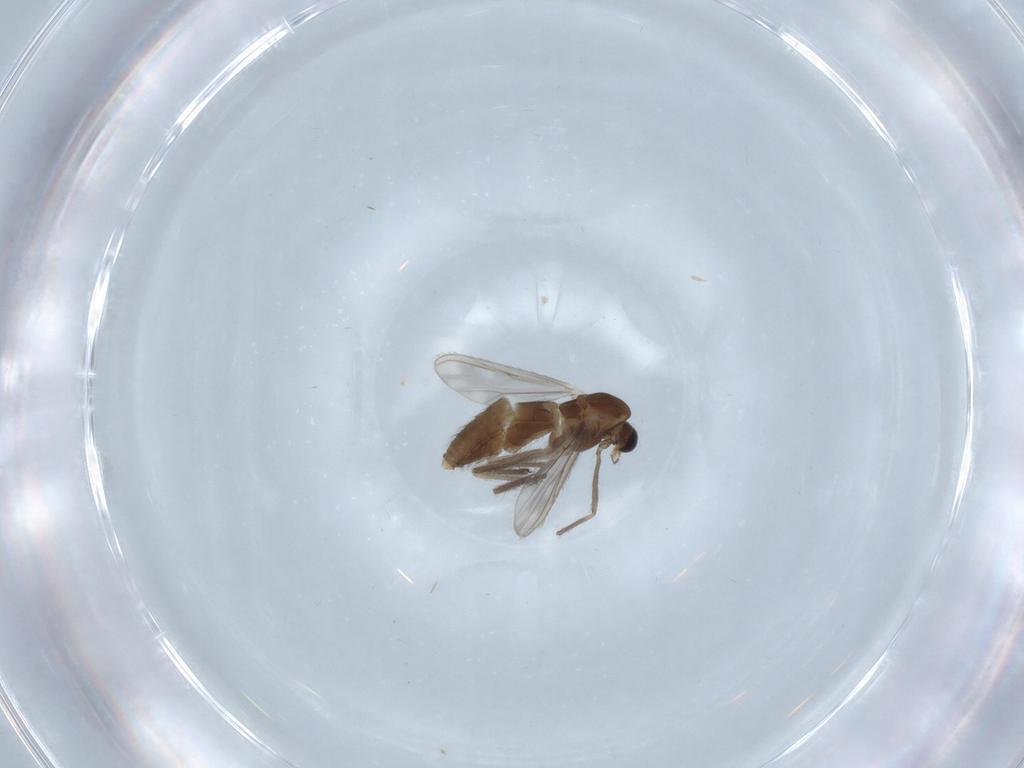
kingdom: Animalia
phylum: Arthropoda
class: Insecta
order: Diptera
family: Chironomidae
